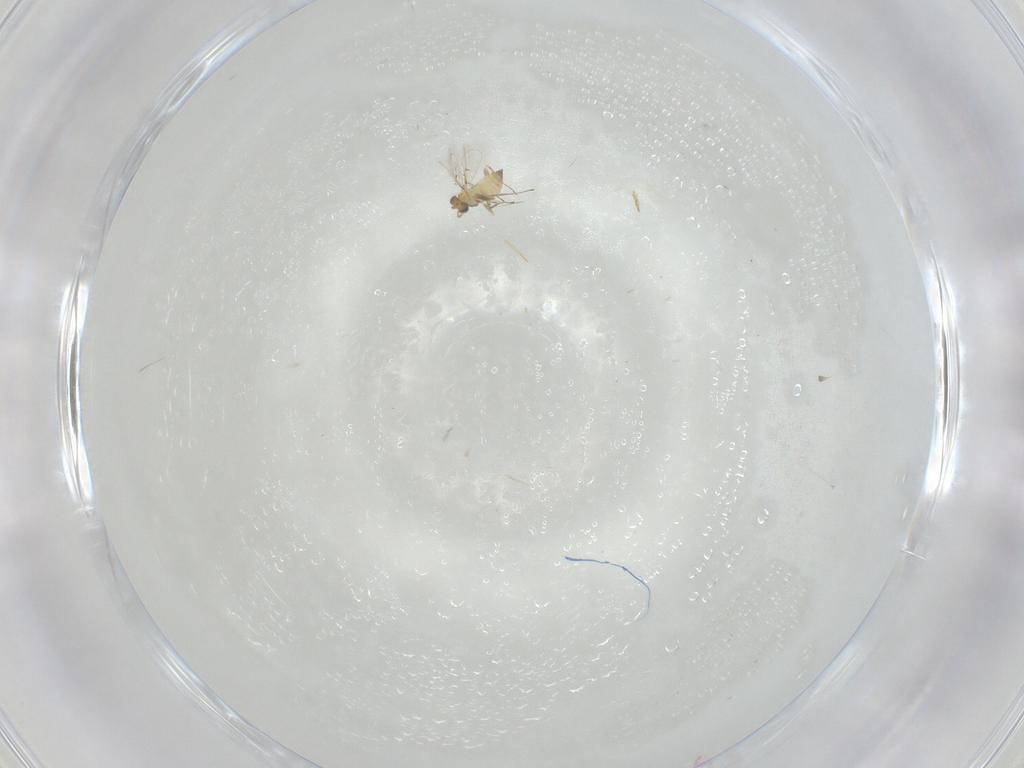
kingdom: Animalia
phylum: Arthropoda
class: Insecta
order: Hymenoptera
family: Trichogrammatidae
